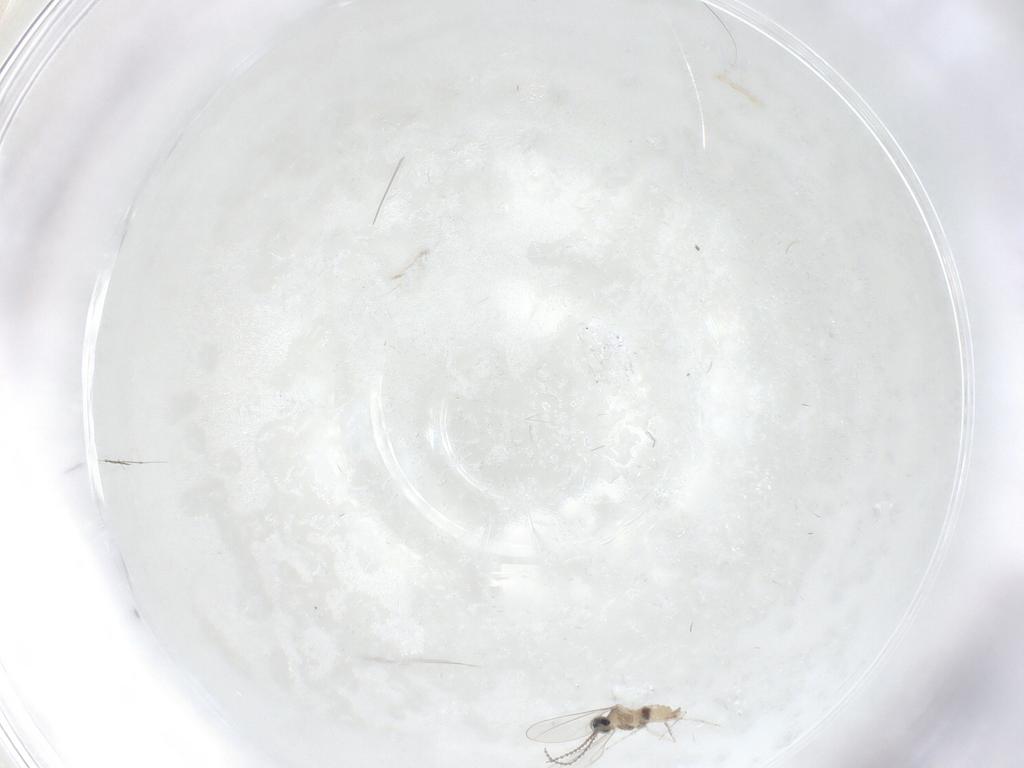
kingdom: Animalia
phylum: Arthropoda
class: Insecta
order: Diptera
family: Cecidomyiidae
